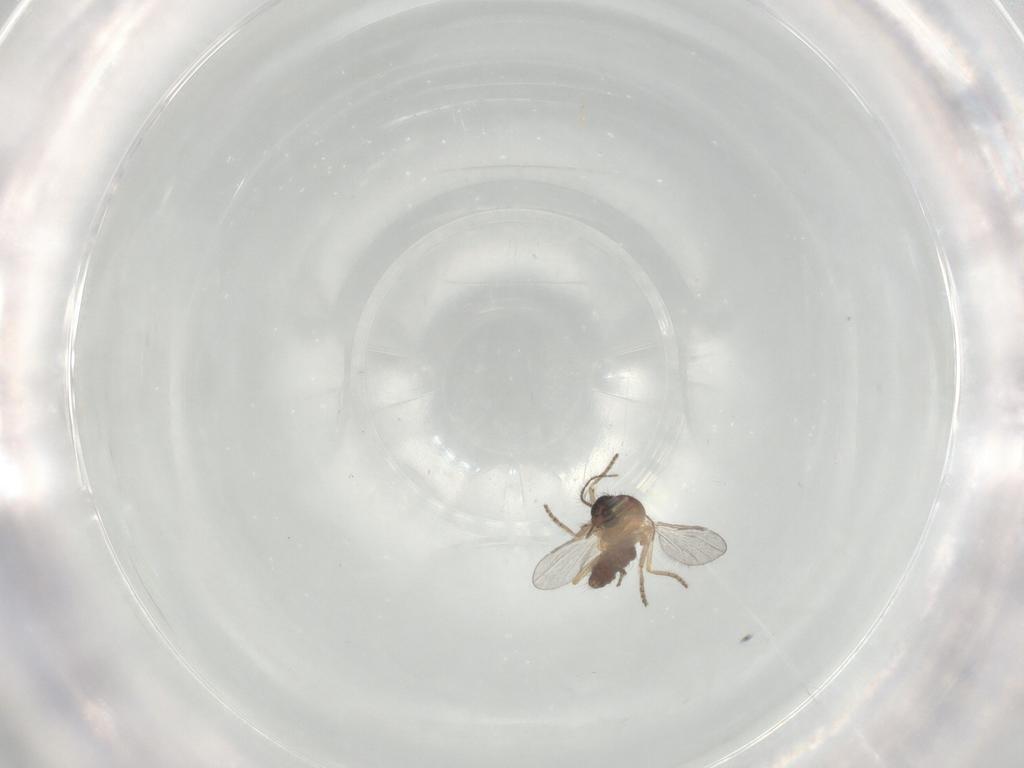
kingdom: Animalia
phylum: Arthropoda
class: Insecta
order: Diptera
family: Ceratopogonidae
